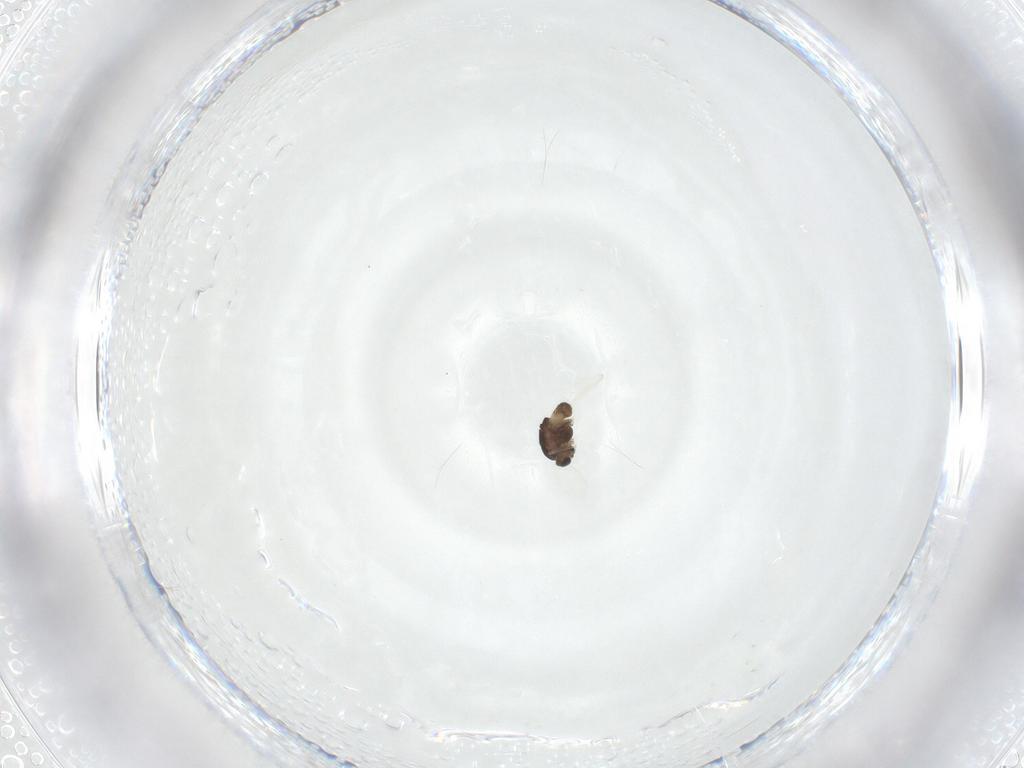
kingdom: Animalia
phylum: Arthropoda
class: Insecta
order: Diptera
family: Chironomidae
